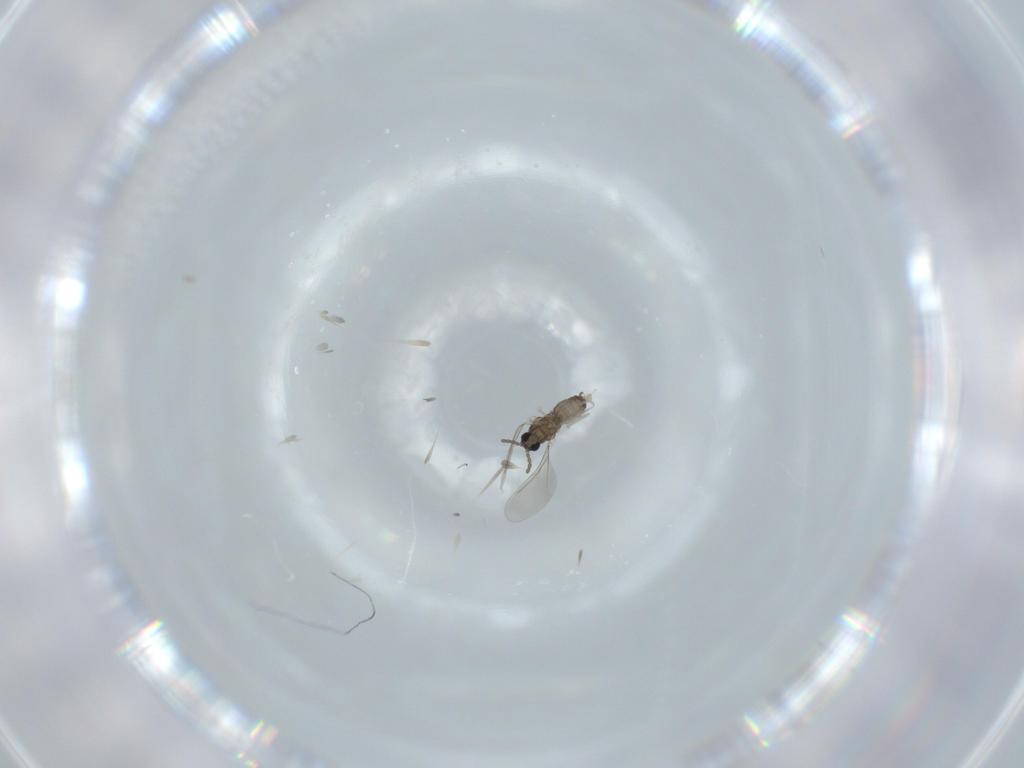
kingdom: Animalia
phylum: Arthropoda
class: Insecta
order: Diptera
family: Cecidomyiidae
